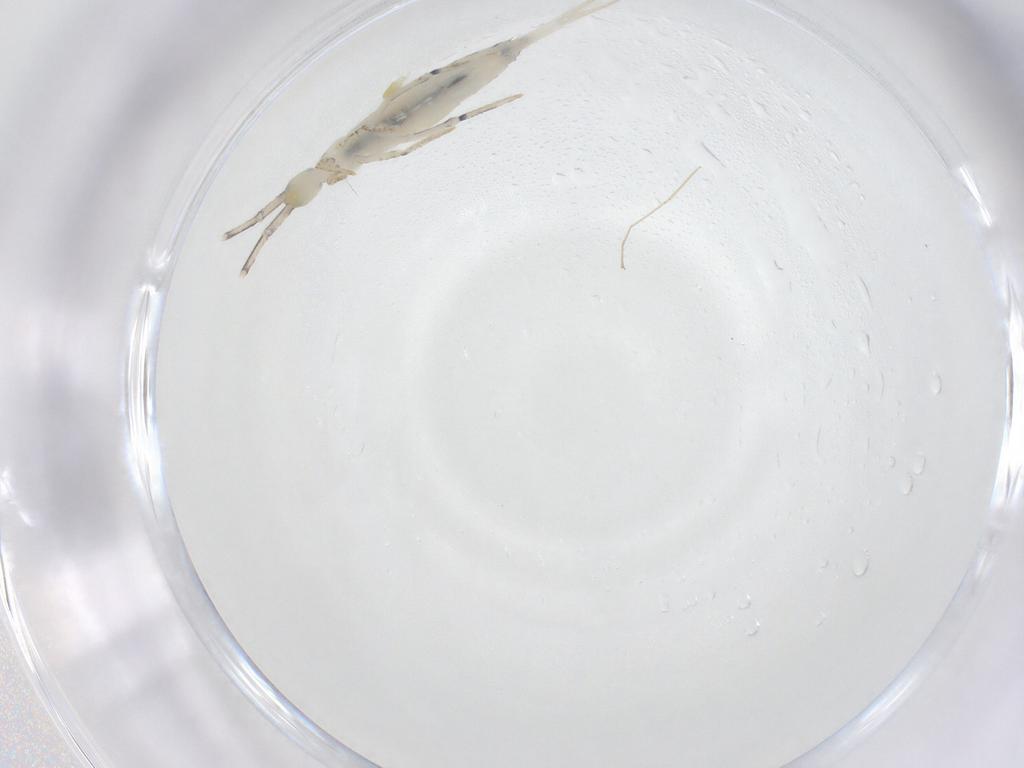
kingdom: Animalia
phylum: Arthropoda
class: Collembola
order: Entomobryomorpha
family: Entomobryidae
